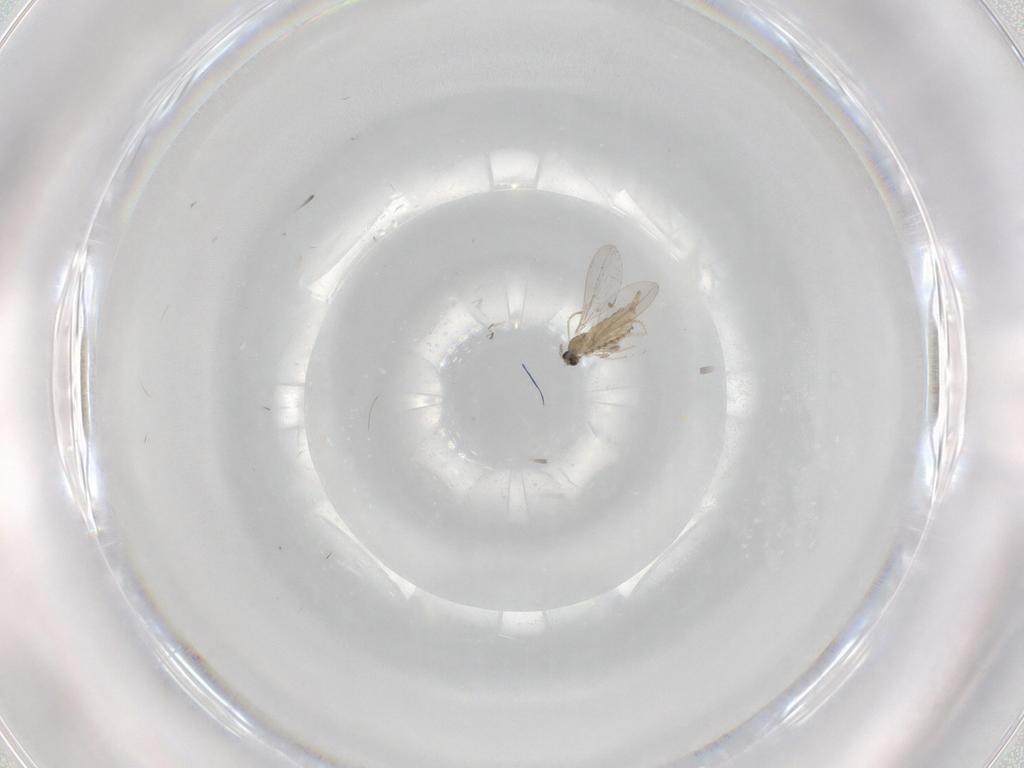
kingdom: Animalia
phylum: Arthropoda
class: Insecta
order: Diptera
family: Cecidomyiidae
